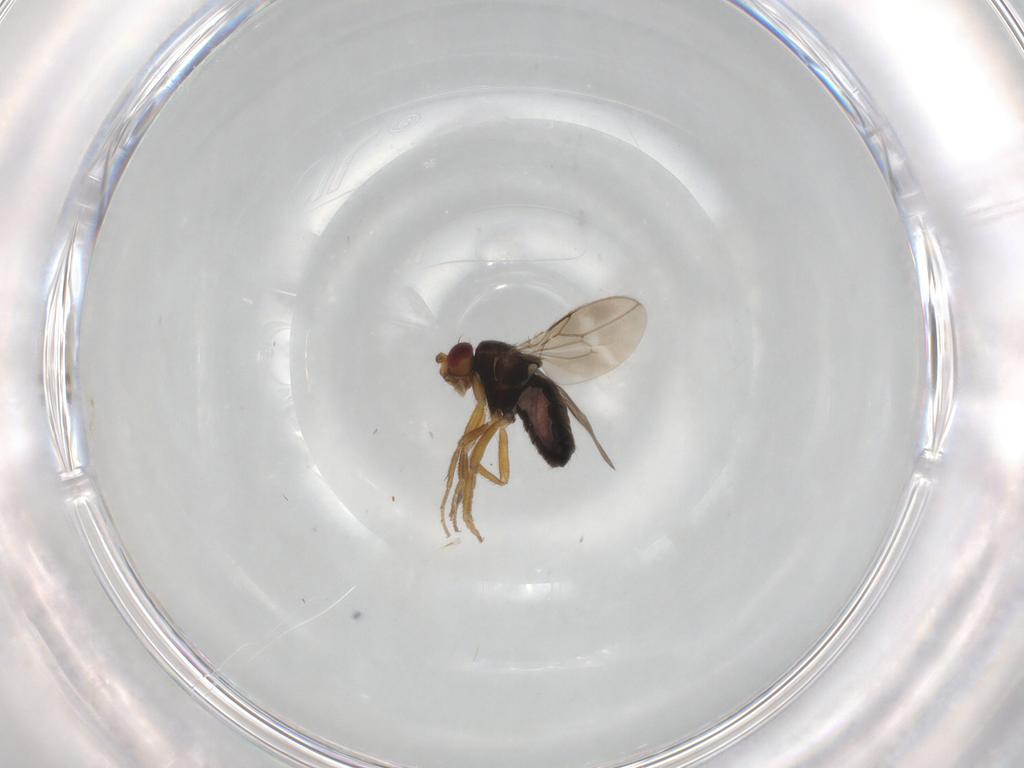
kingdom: Animalia
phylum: Arthropoda
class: Insecta
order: Diptera
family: Sphaeroceridae
